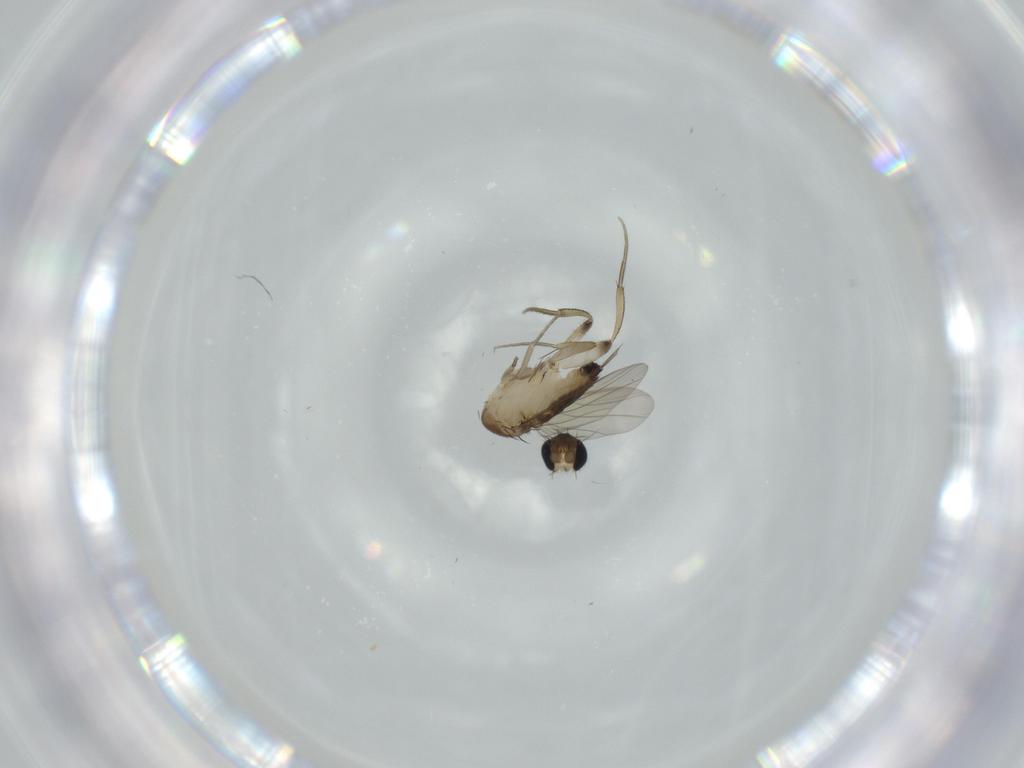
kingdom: Animalia
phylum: Arthropoda
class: Insecta
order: Diptera
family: Phoridae
